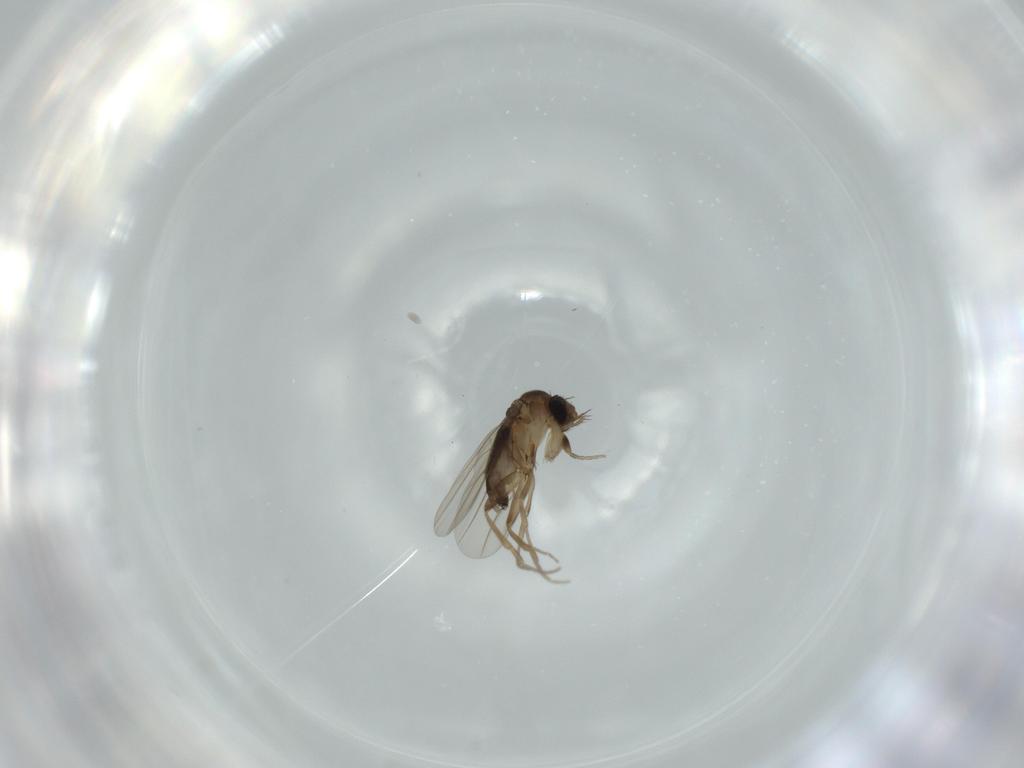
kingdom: Animalia
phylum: Arthropoda
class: Insecta
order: Diptera
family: Phoridae
